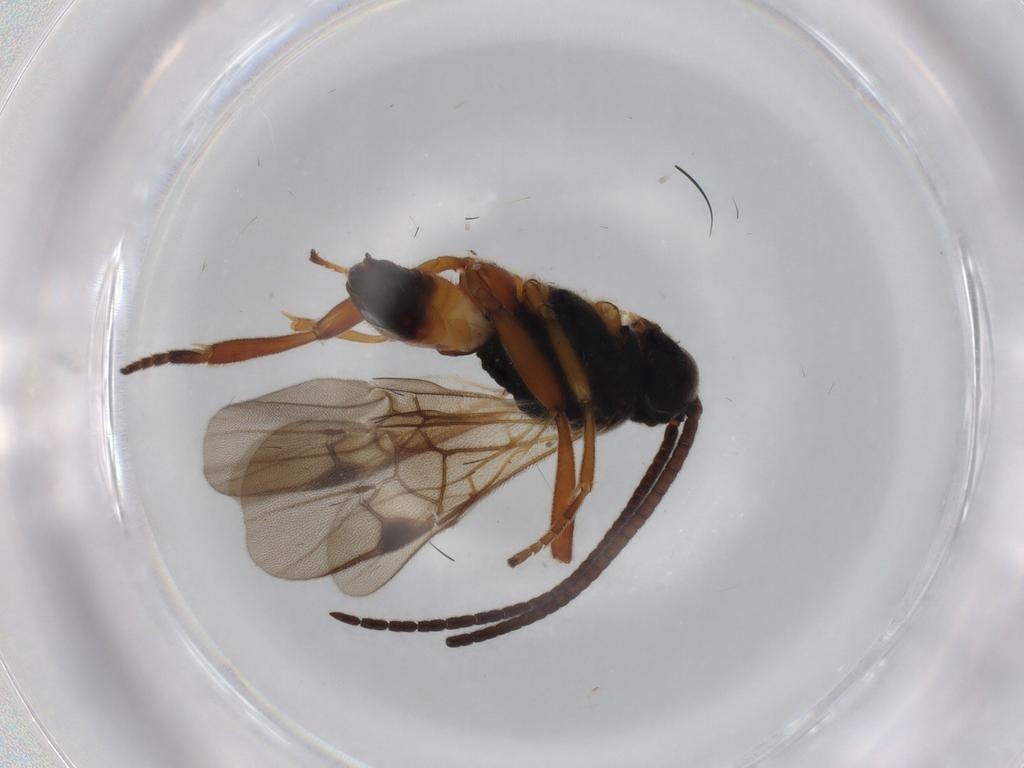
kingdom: Animalia
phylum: Arthropoda
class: Insecta
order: Hymenoptera
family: Braconidae
